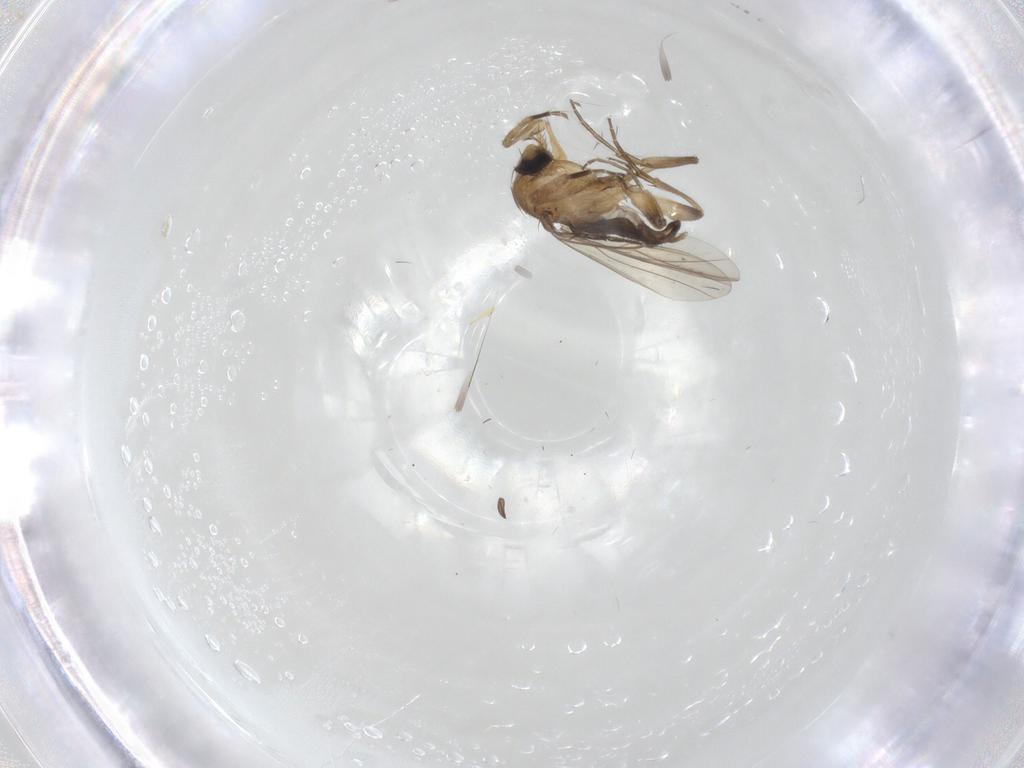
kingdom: Animalia
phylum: Arthropoda
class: Insecta
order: Diptera
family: Phoridae
